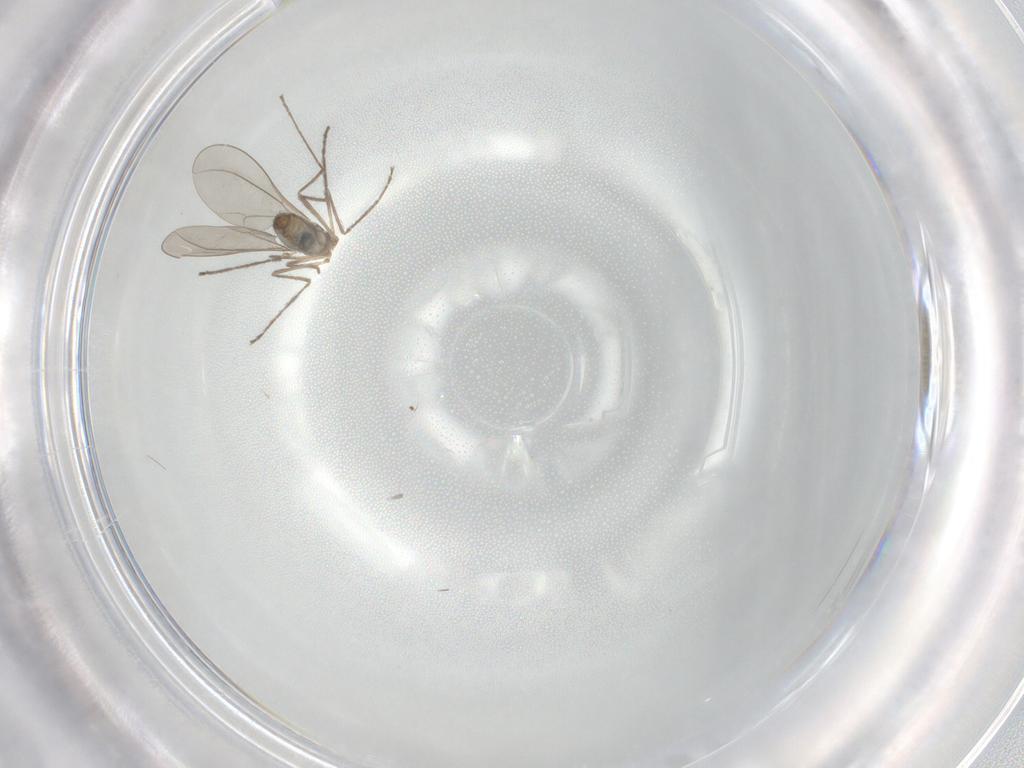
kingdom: Animalia
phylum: Arthropoda
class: Insecta
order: Diptera
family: Cecidomyiidae
